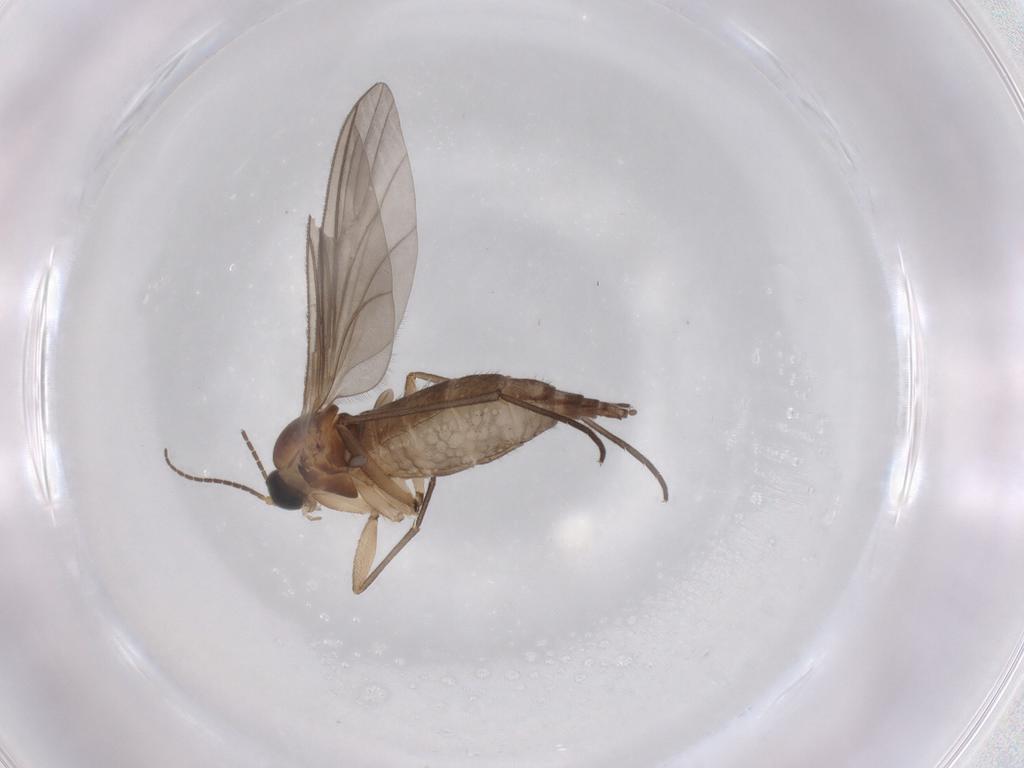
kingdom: Animalia
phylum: Arthropoda
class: Insecta
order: Diptera
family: Sciaridae
